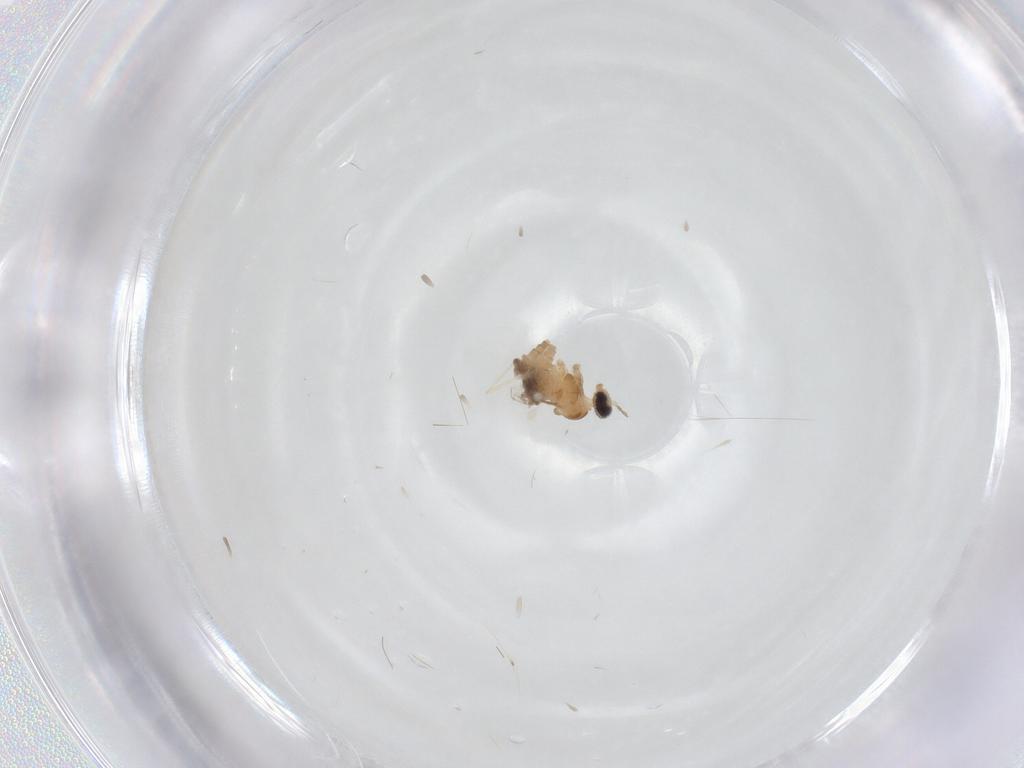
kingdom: Animalia
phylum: Arthropoda
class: Insecta
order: Diptera
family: Cecidomyiidae
